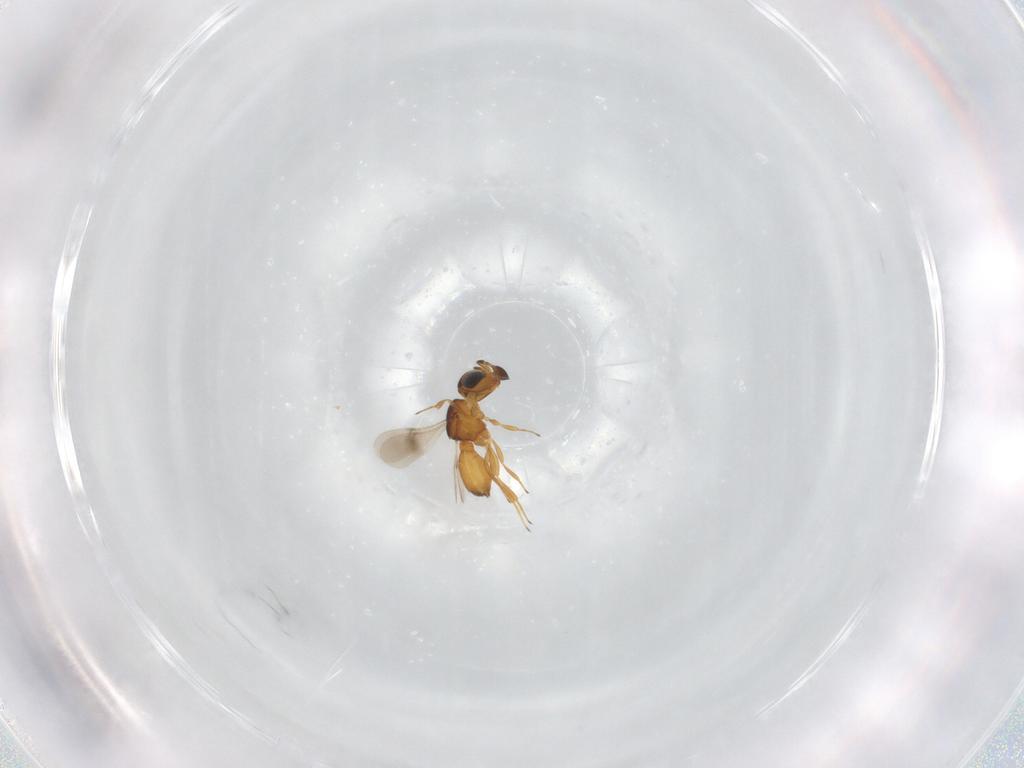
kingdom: Animalia
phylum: Arthropoda
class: Insecta
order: Hymenoptera
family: Scelionidae
